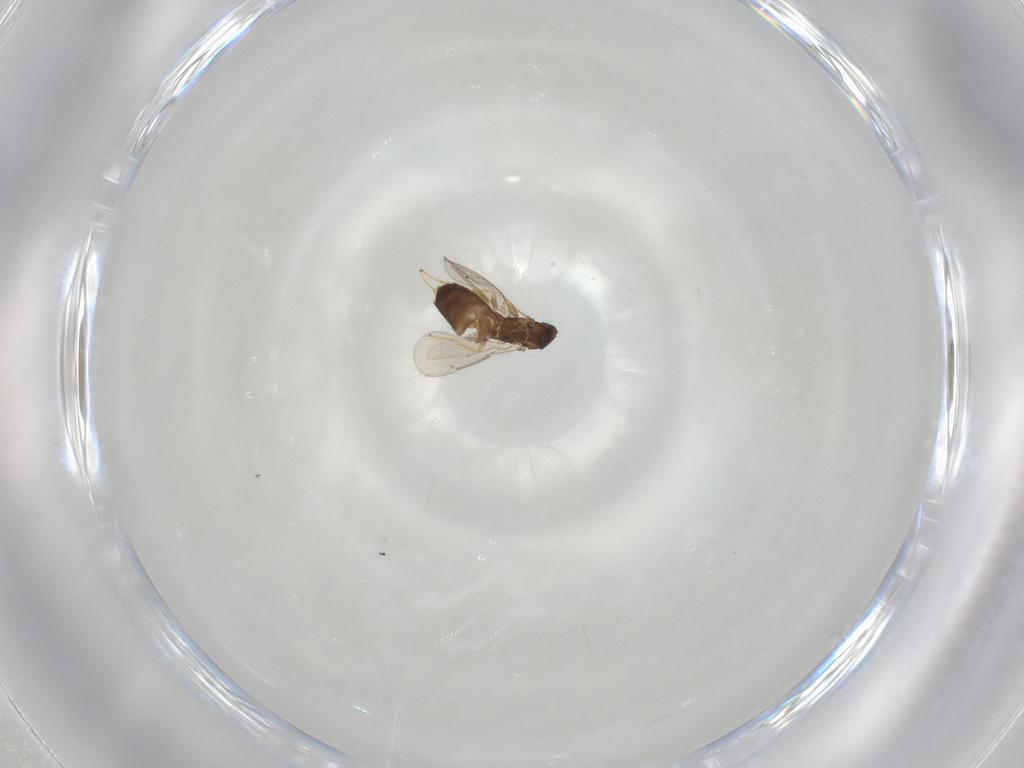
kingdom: Animalia
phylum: Arthropoda
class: Insecta
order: Hymenoptera
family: Eulophidae
